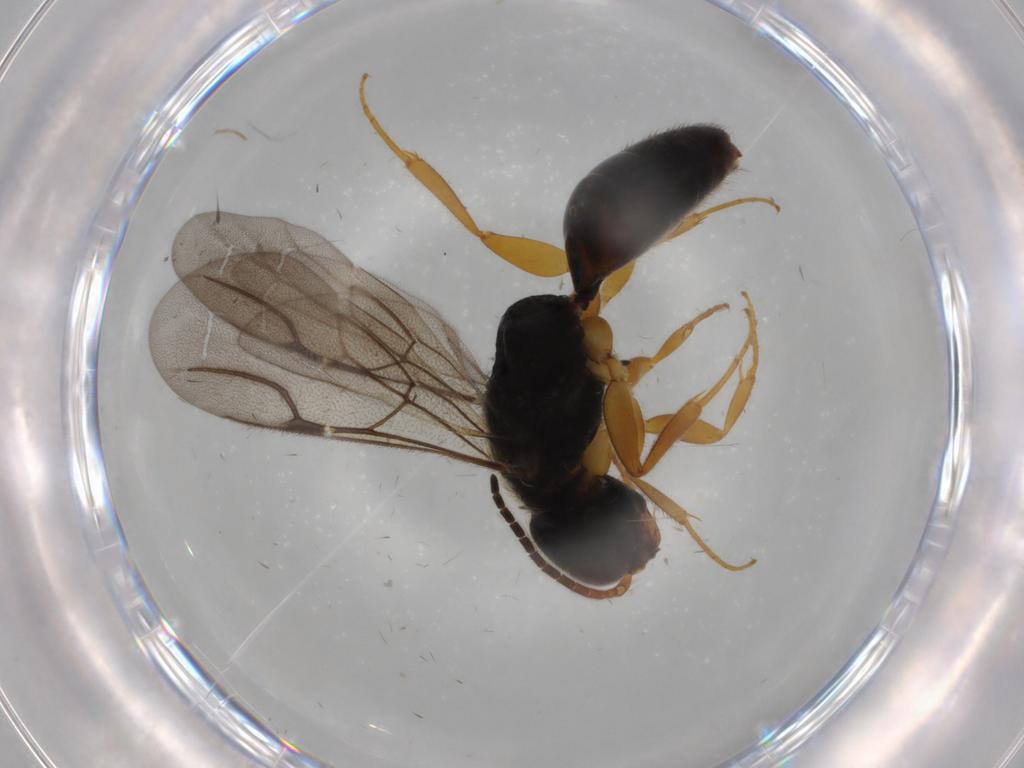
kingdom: Animalia
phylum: Arthropoda
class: Insecta
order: Hymenoptera
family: Bethylidae
